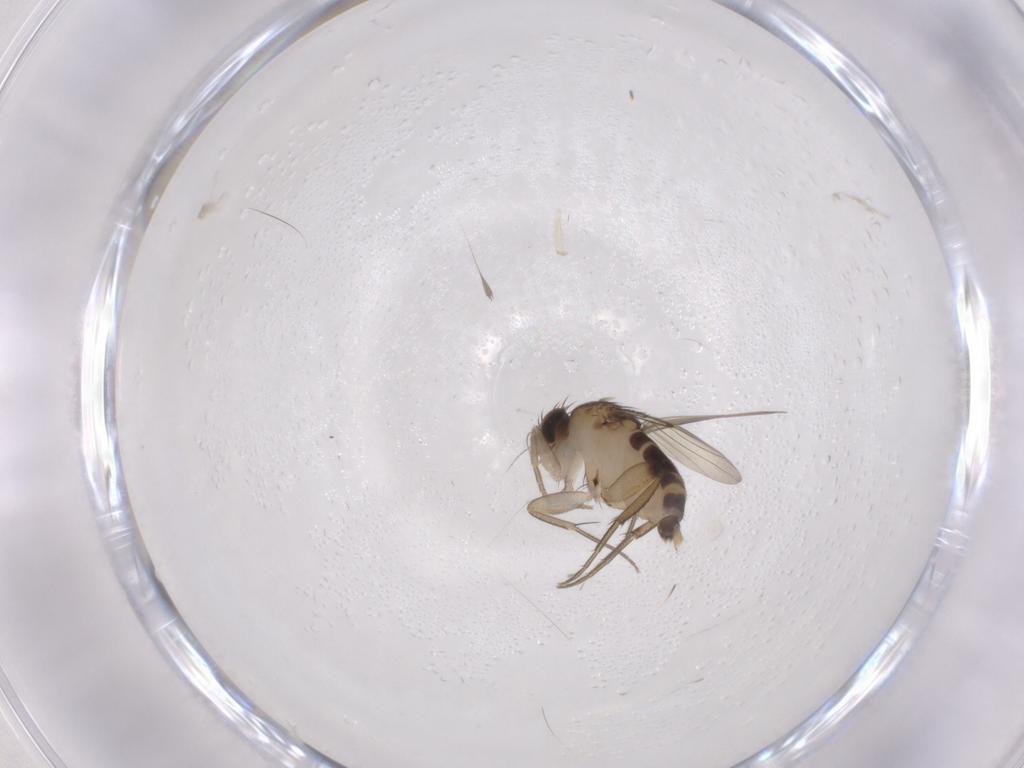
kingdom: Animalia
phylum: Arthropoda
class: Insecta
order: Diptera
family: Phoridae
